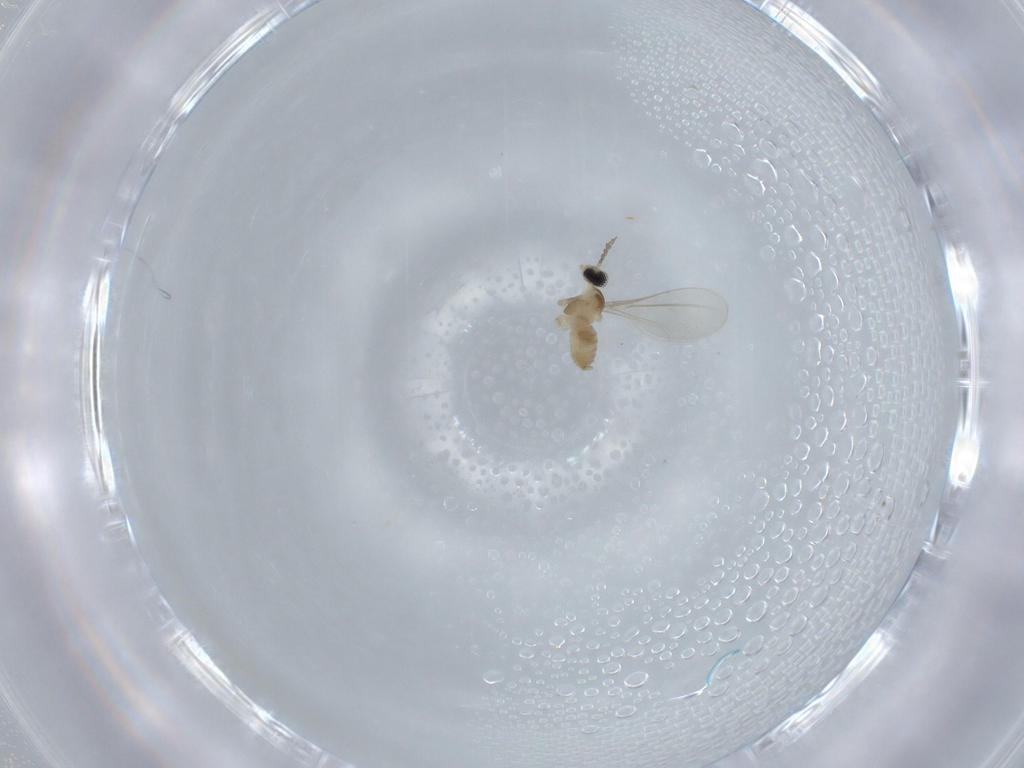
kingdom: Animalia
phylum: Arthropoda
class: Insecta
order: Diptera
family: Cecidomyiidae
